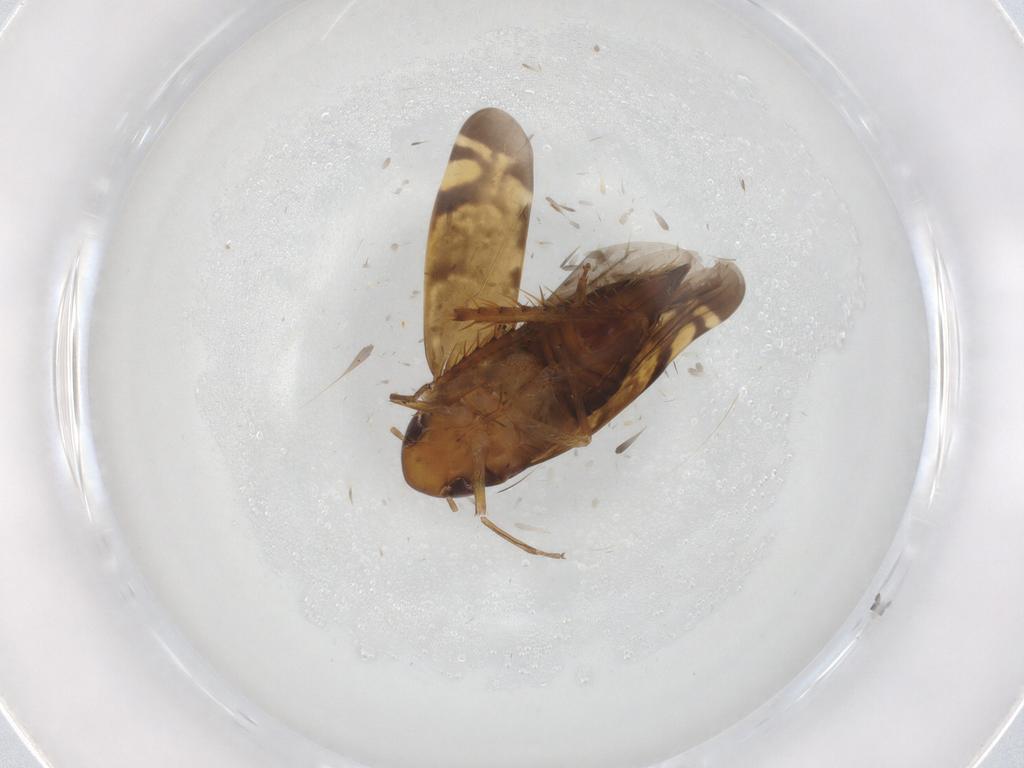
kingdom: Animalia
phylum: Arthropoda
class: Insecta
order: Hemiptera
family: Cicadellidae
